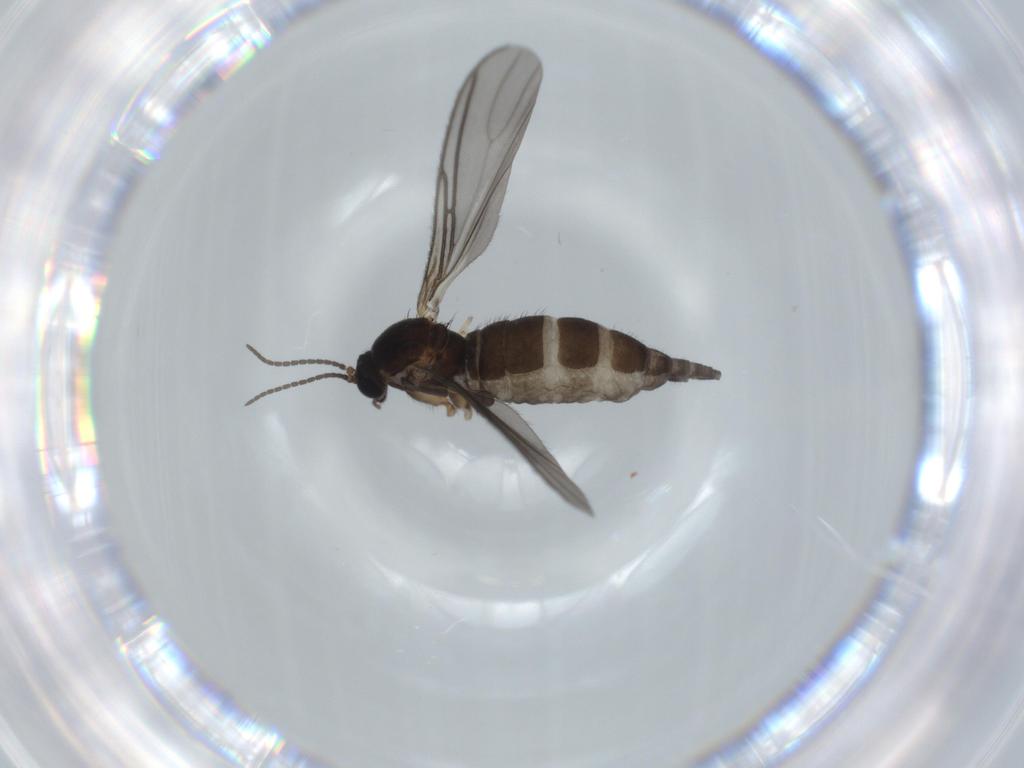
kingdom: Animalia
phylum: Arthropoda
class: Insecta
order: Diptera
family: Sciaridae
